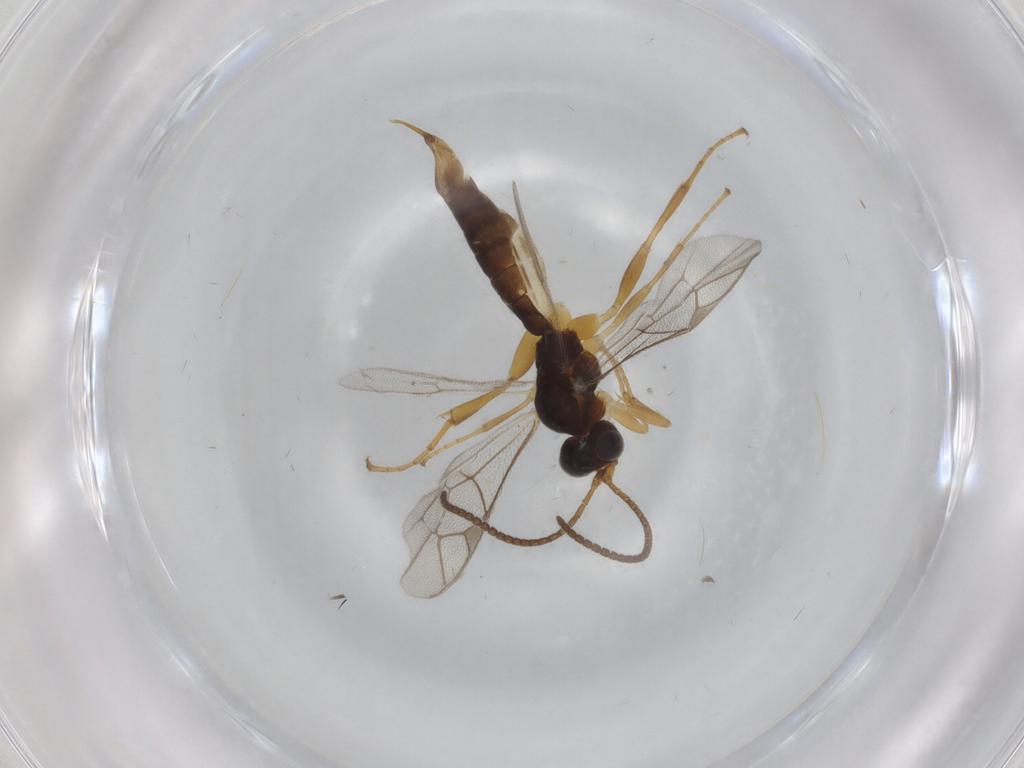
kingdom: Animalia
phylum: Arthropoda
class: Insecta
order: Hymenoptera
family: Ichneumonidae
